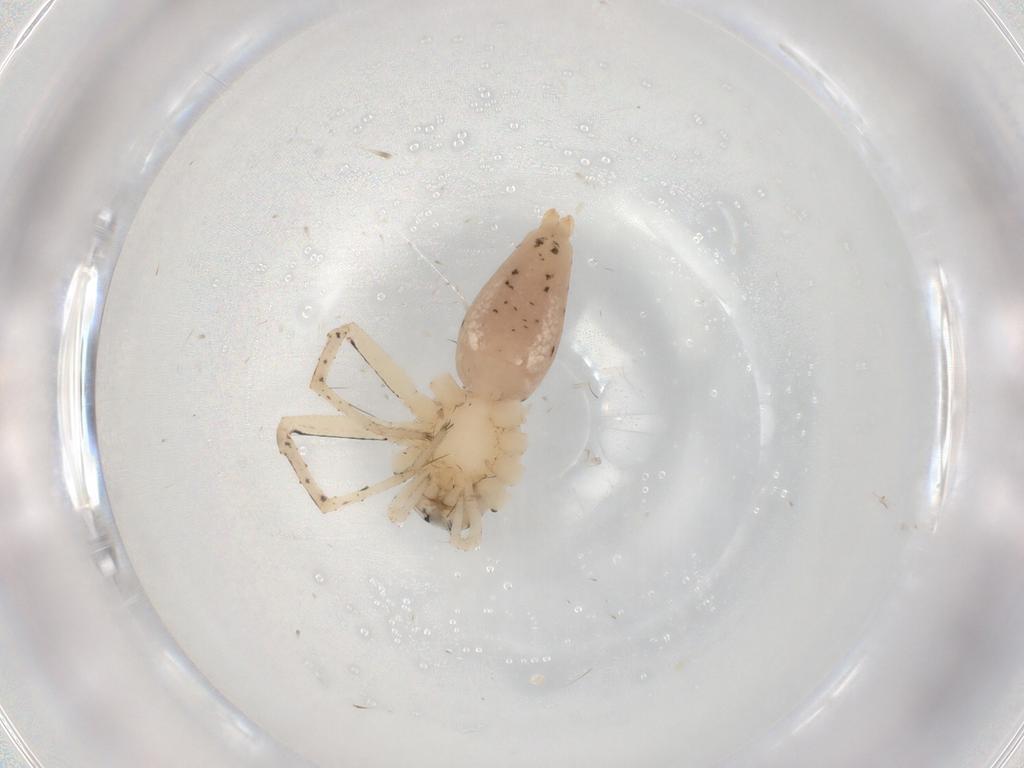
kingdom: Animalia
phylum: Arthropoda
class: Arachnida
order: Araneae
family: Oxyopidae
